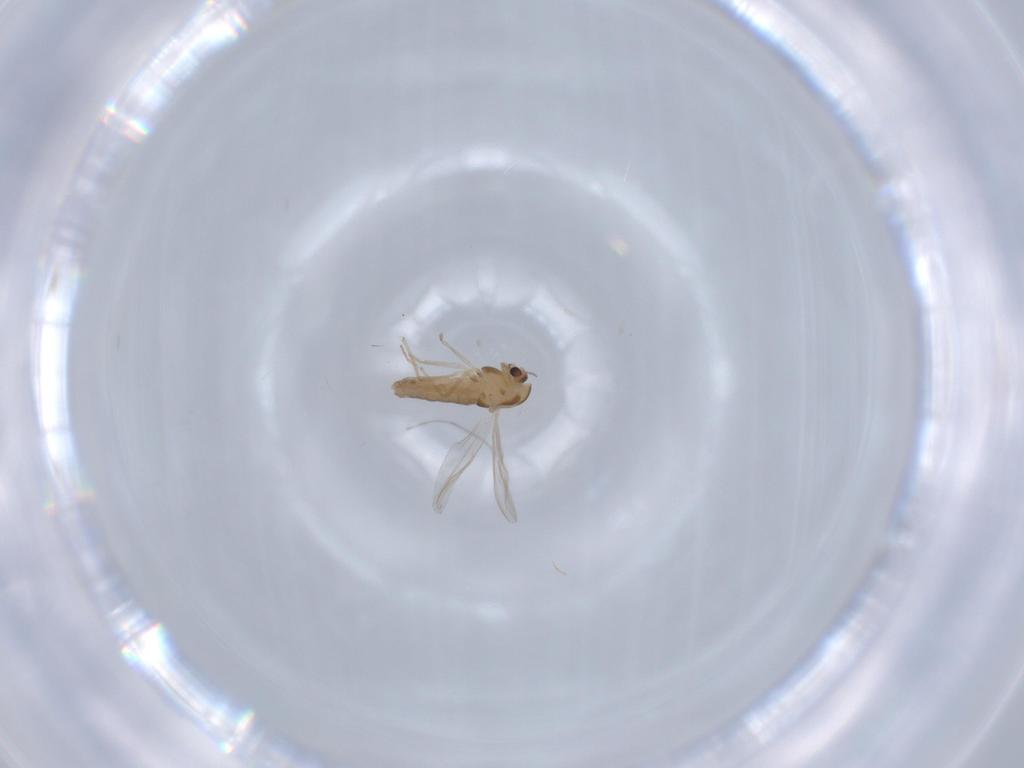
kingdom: Animalia
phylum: Arthropoda
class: Insecta
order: Diptera
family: Chironomidae
